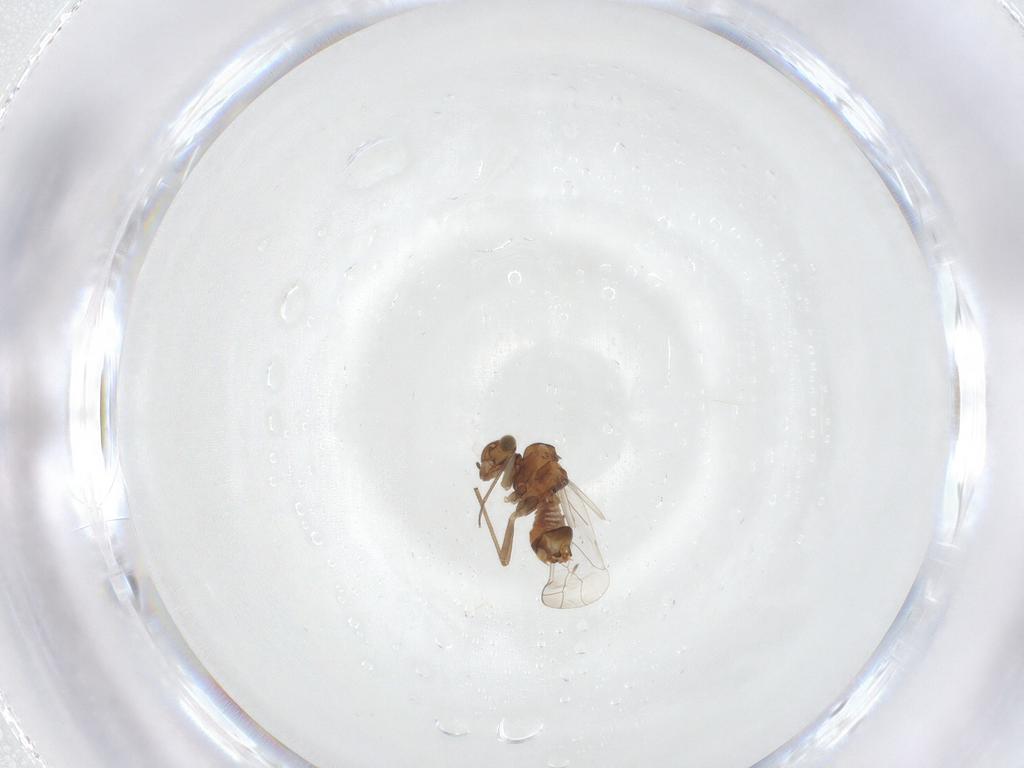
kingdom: Animalia
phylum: Arthropoda
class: Insecta
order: Psocodea
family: Lachesillidae
